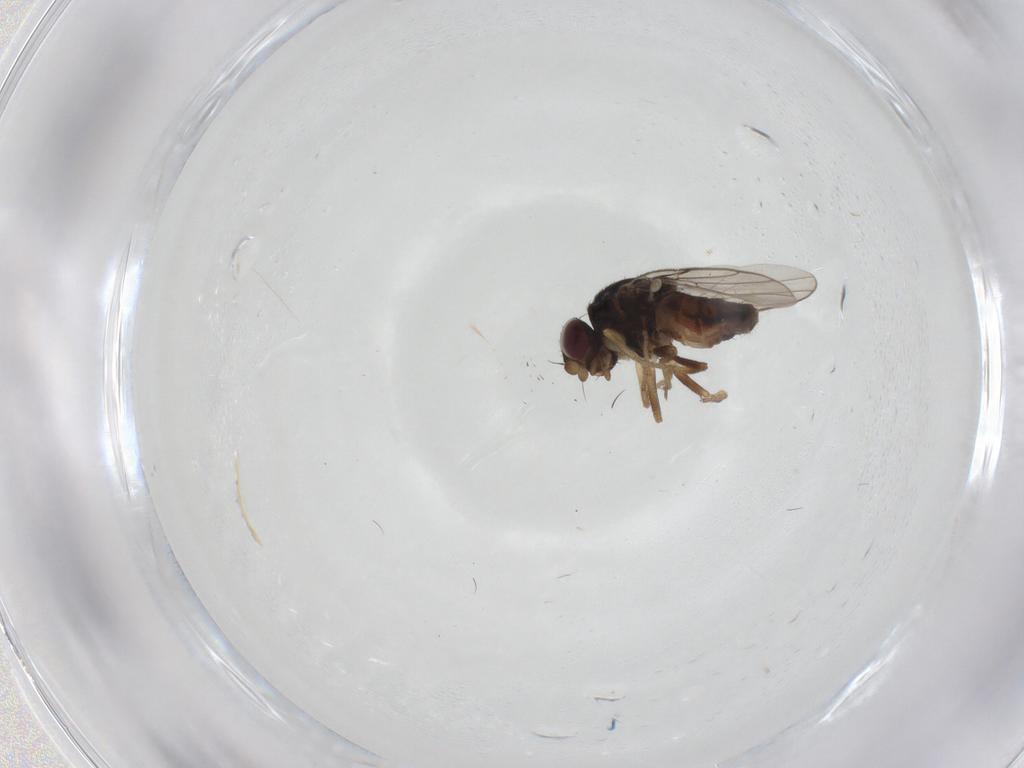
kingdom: Animalia
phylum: Arthropoda
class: Insecta
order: Diptera
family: Chloropidae
